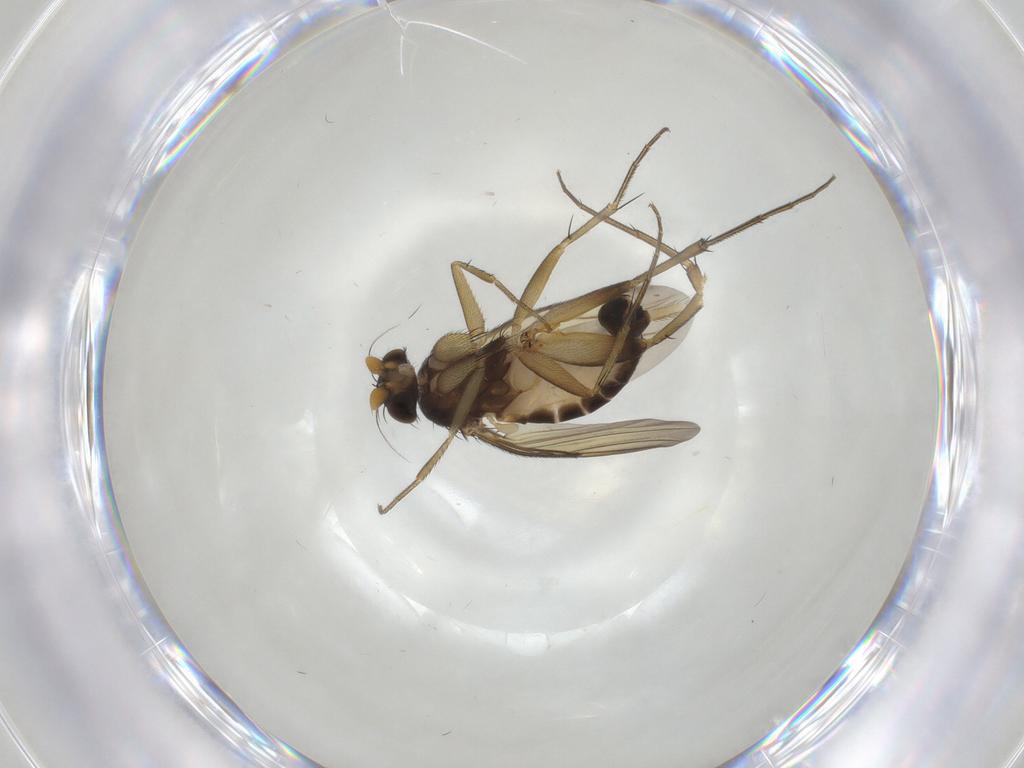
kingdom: Animalia
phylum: Arthropoda
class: Insecta
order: Diptera
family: Phoridae
